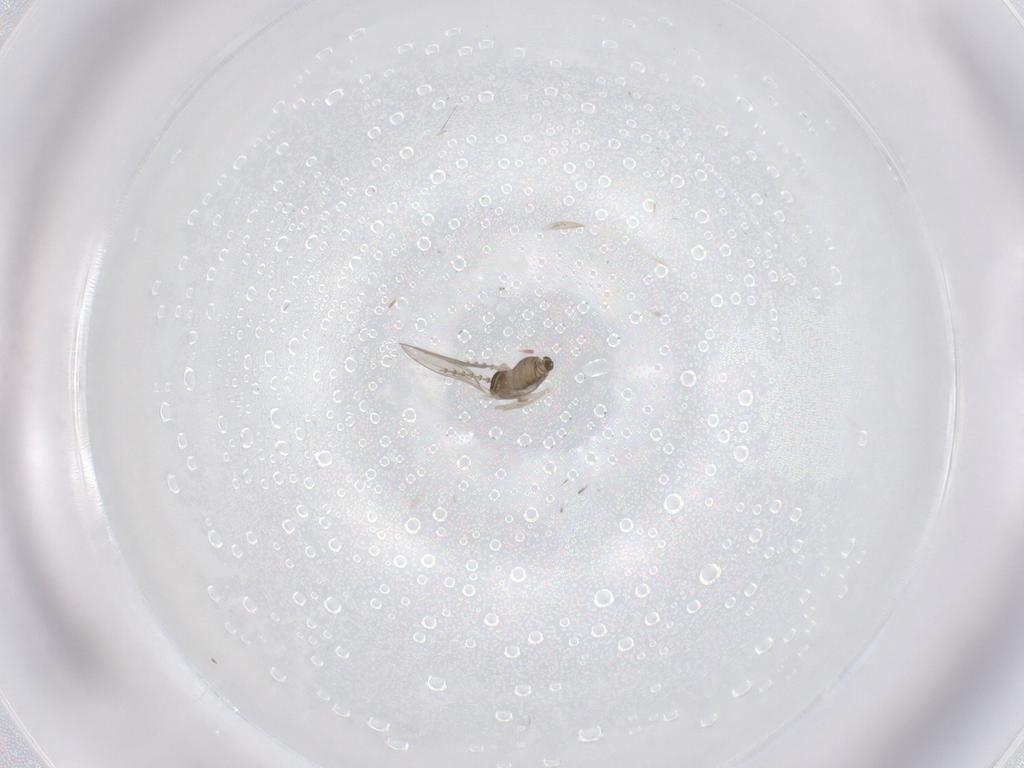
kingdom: Animalia
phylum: Arthropoda
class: Insecta
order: Diptera
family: Cecidomyiidae
